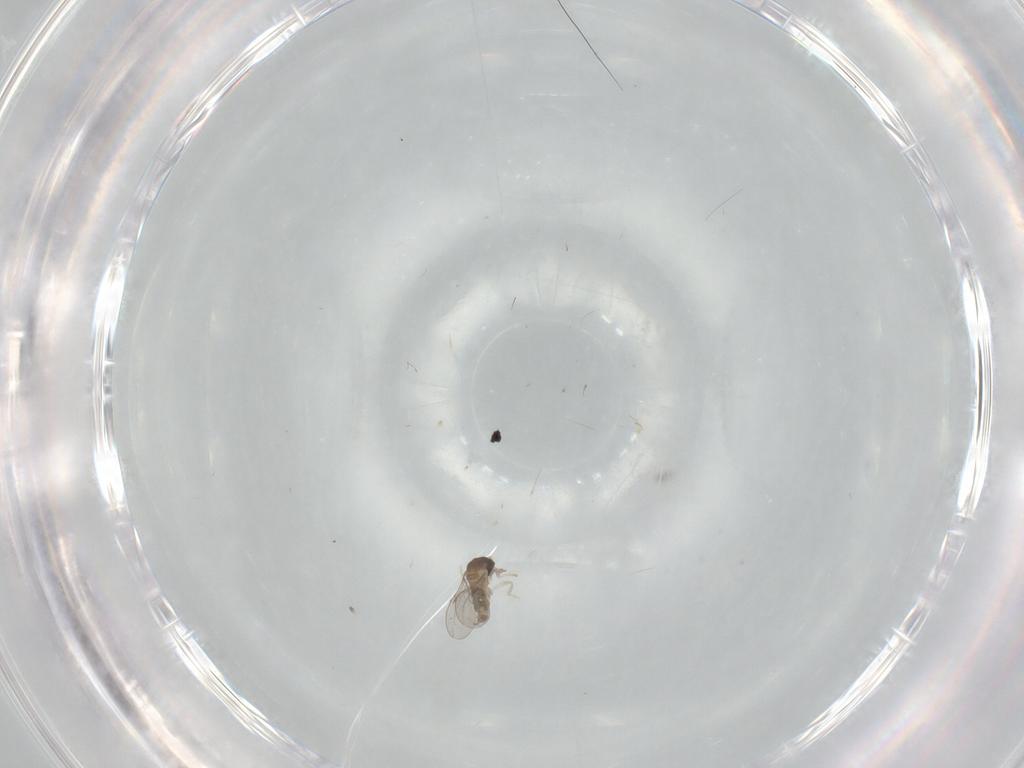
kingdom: Animalia
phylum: Arthropoda
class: Insecta
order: Diptera
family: Cecidomyiidae
